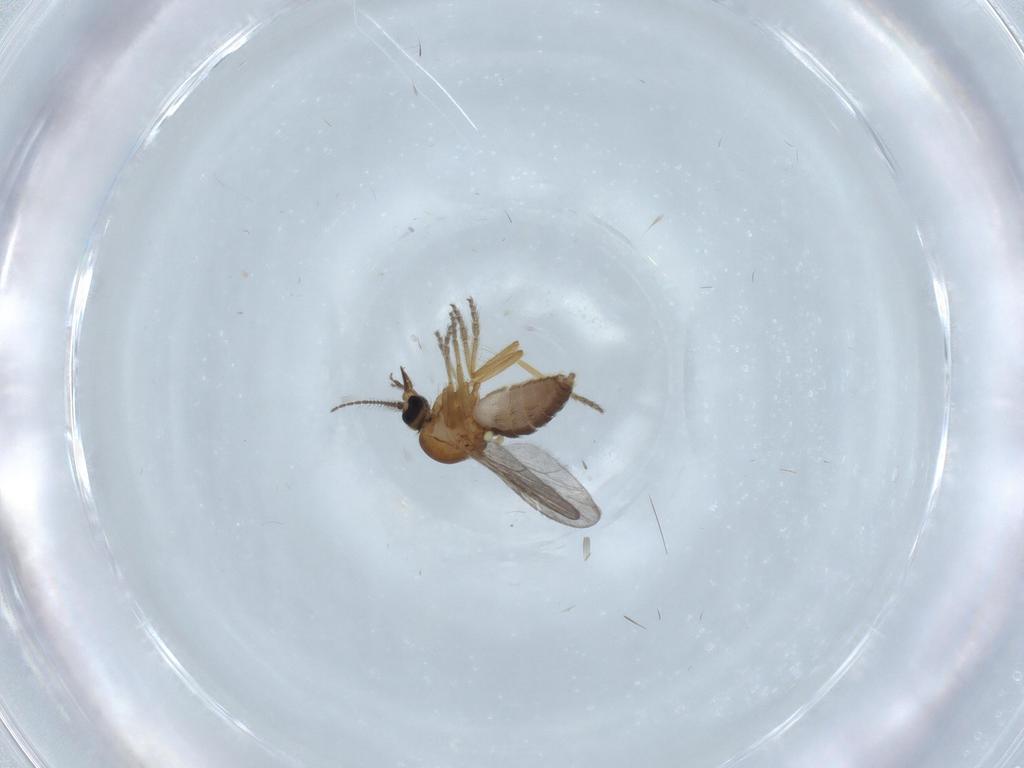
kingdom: Animalia
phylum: Arthropoda
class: Insecta
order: Diptera
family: Ceratopogonidae
